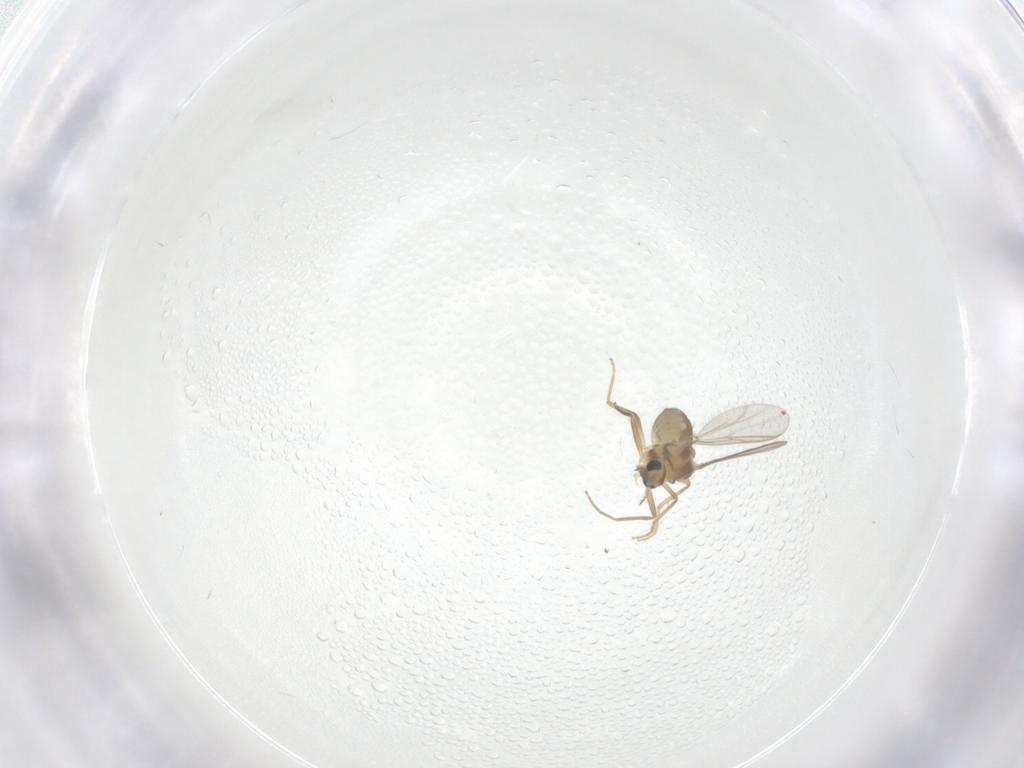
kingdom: Animalia
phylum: Arthropoda
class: Insecta
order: Diptera
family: Chironomidae
